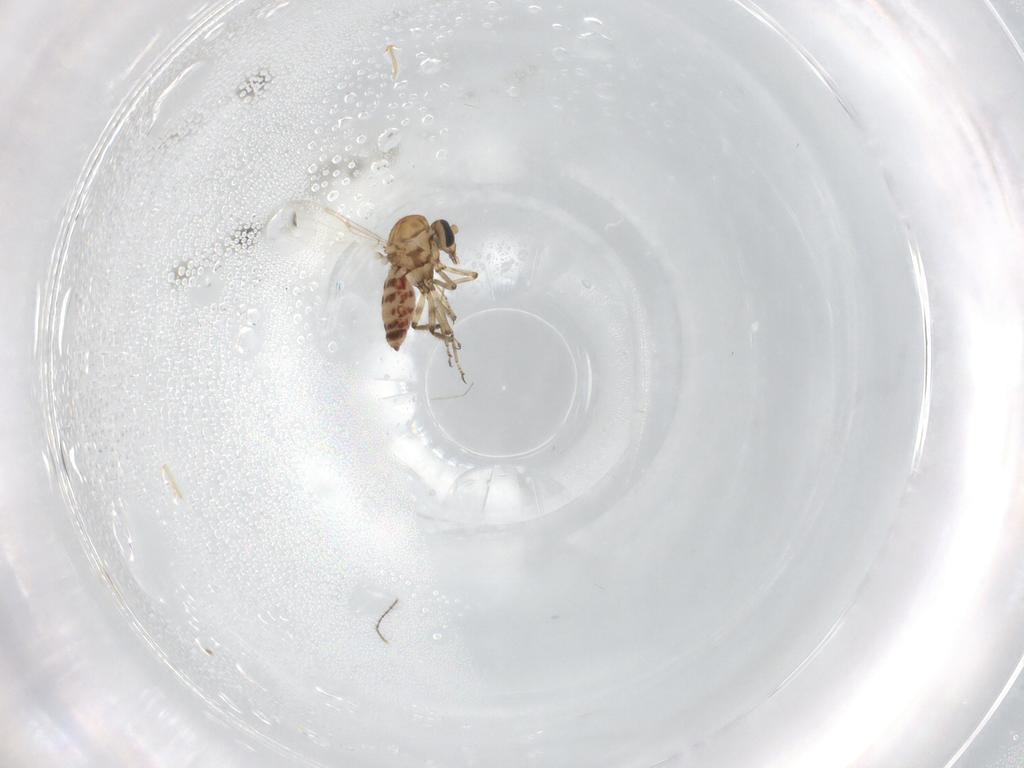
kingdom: Animalia
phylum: Arthropoda
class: Insecta
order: Diptera
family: Ceratopogonidae
